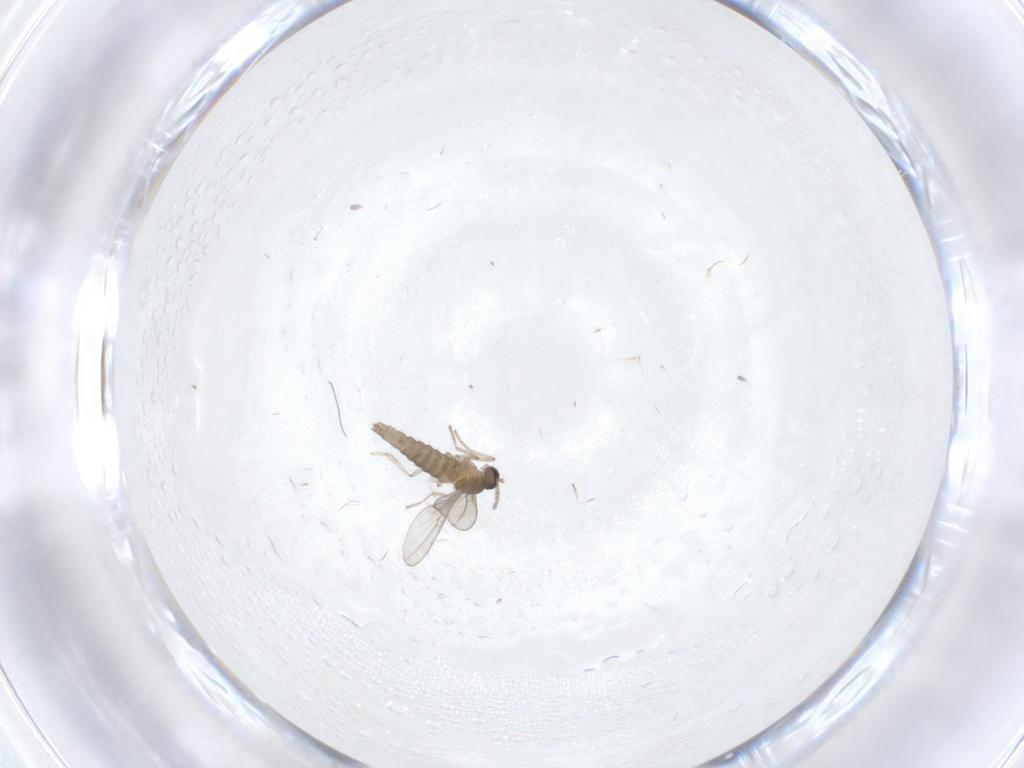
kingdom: Animalia
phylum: Arthropoda
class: Insecta
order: Diptera
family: Cecidomyiidae
